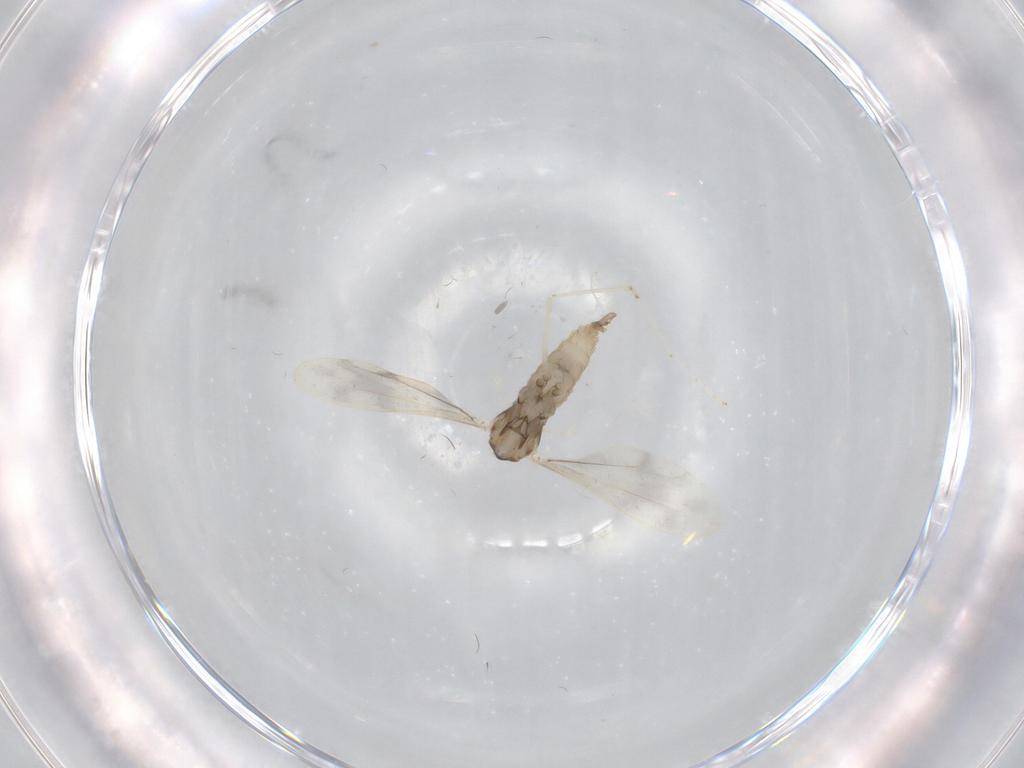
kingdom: Animalia
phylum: Arthropoda
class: Insecta
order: Diptera
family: Cecidomyiidae
